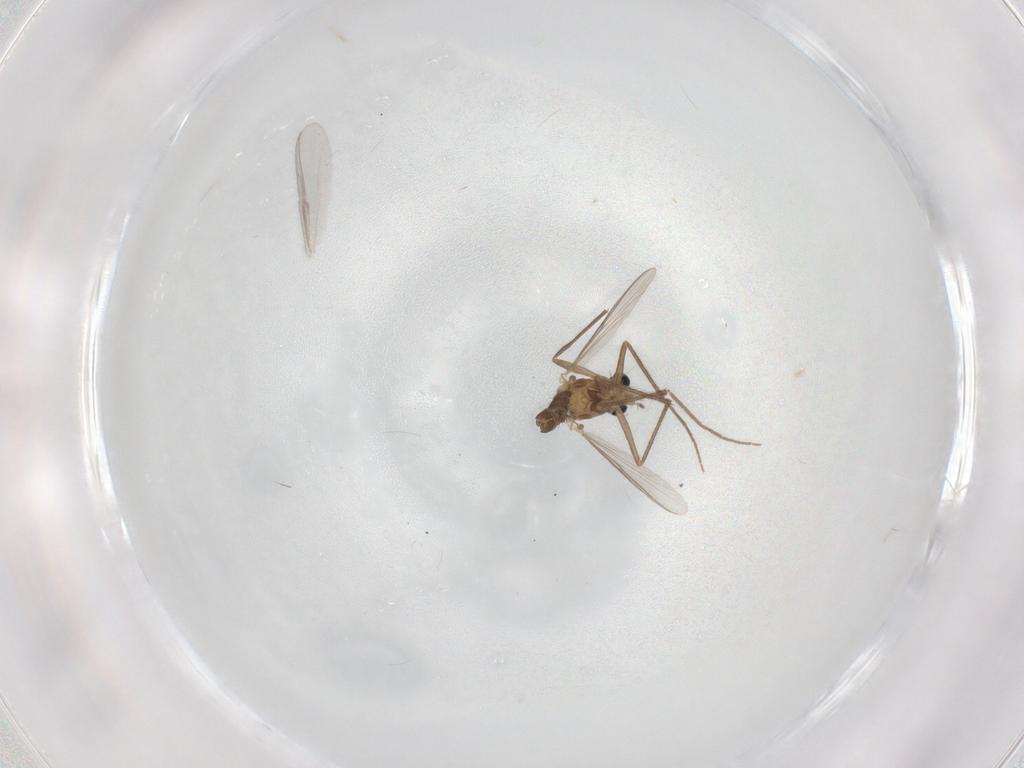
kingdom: Animalia
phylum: Arthropoda
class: Insecta
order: Diptera
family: Chironomidae
